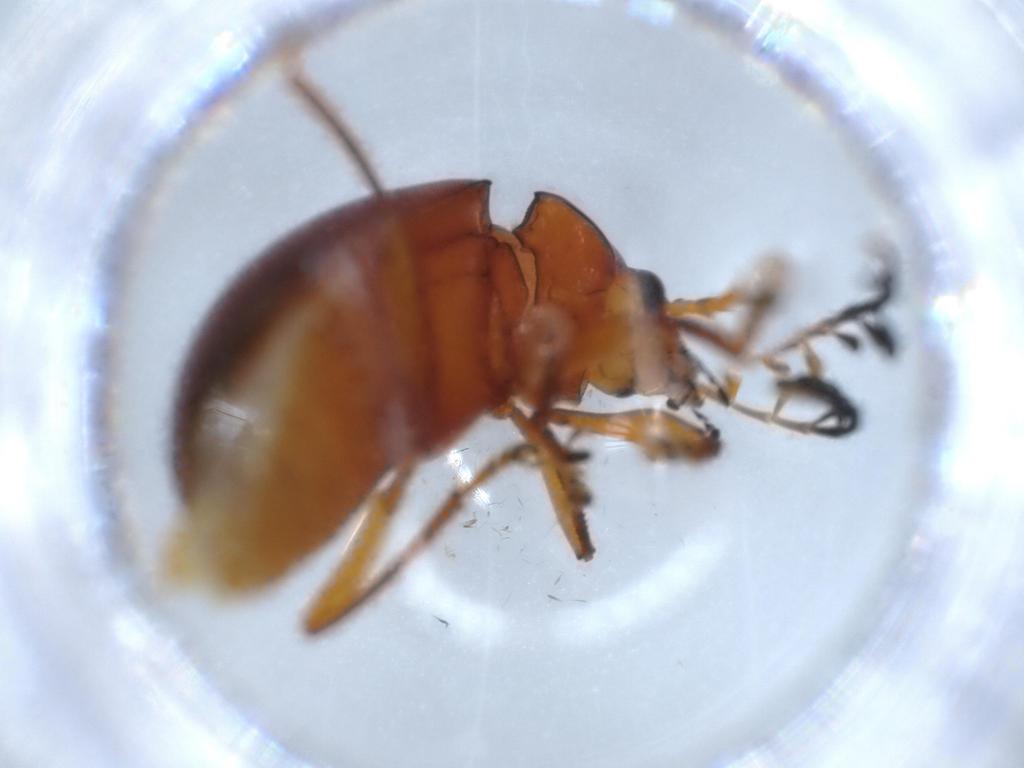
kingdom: Animalia
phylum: Arthropoda
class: Insecta
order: Coleoptera
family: Ptilodactylidae
